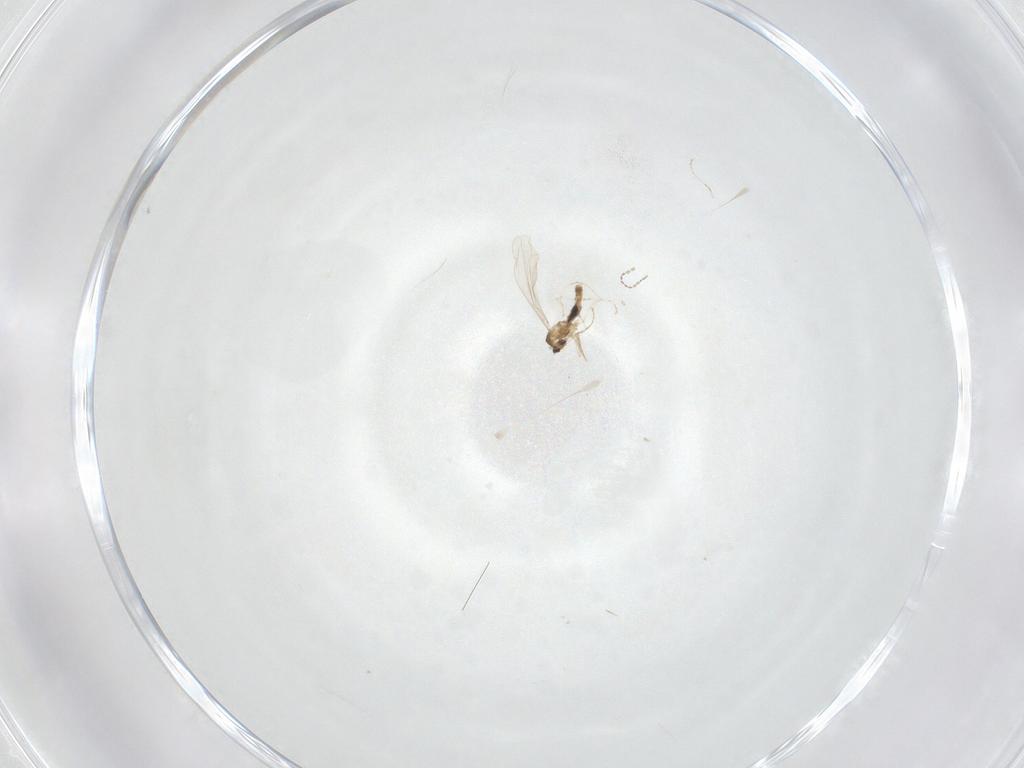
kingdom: Animalia
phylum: Arthropoda
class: Insecta
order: Diptera
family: Cecidomyiidae
